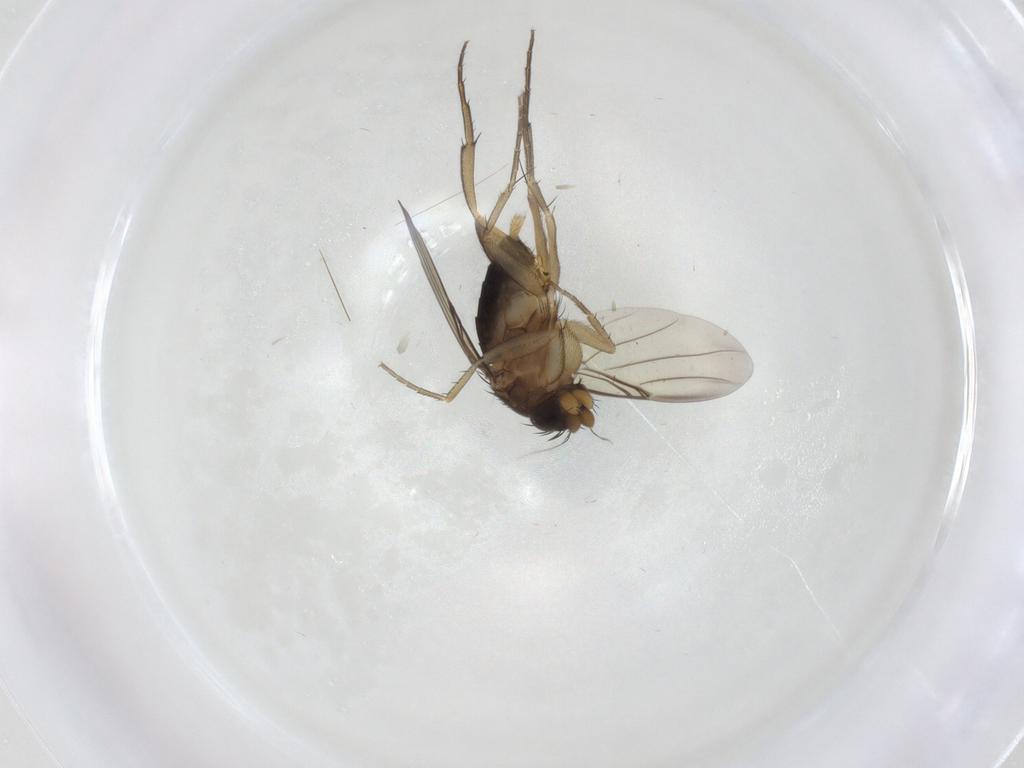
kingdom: Animalia
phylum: Arthropoda
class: Insecta
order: Diptera
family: Phoridae
